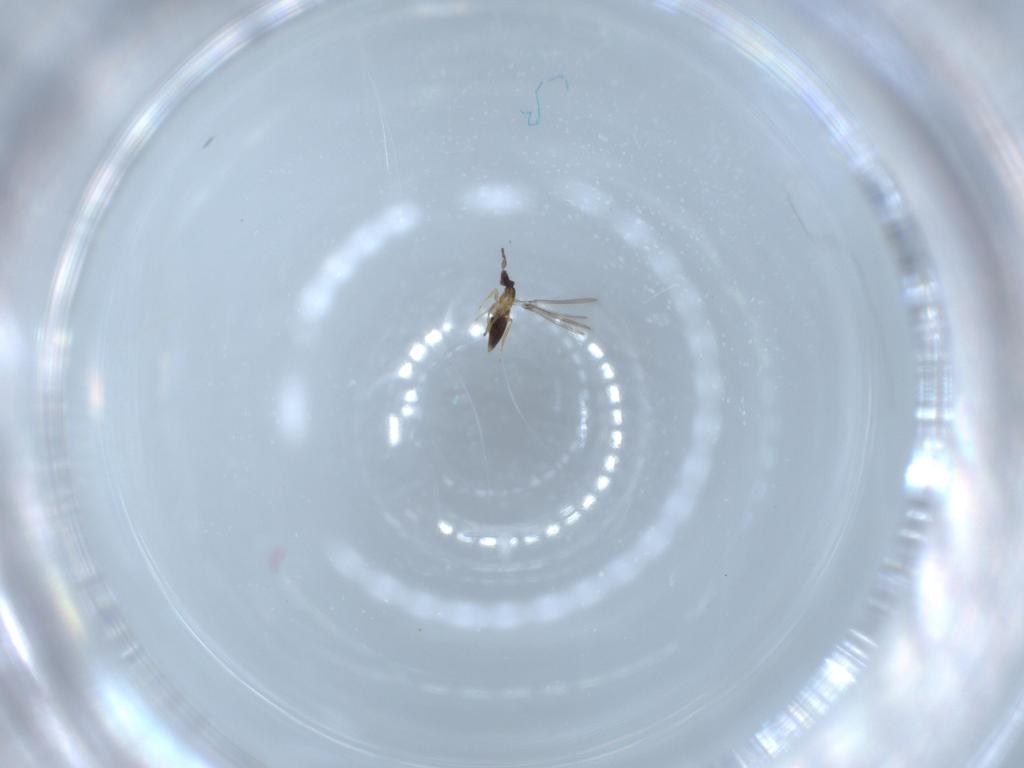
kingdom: Animalia
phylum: Arthropoda
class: Insecta
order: Hymenoptera
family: Mymaridae
